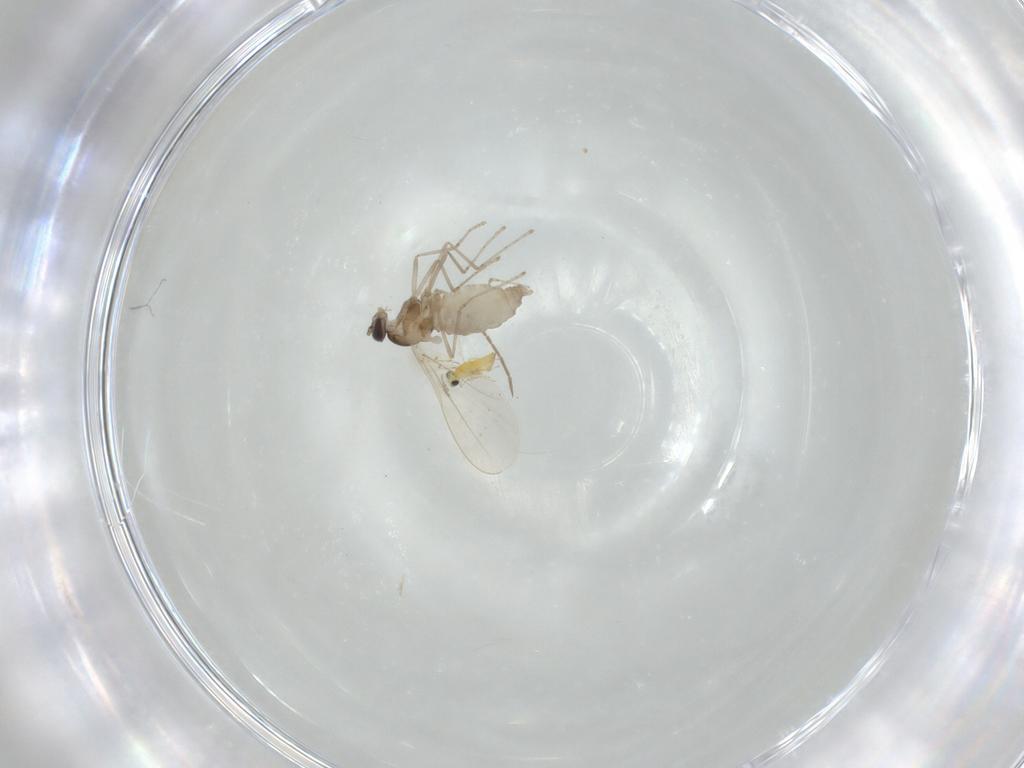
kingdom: Animalia
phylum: Arthropoda
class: Insecta
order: Diptera
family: Cecidomyiidae
